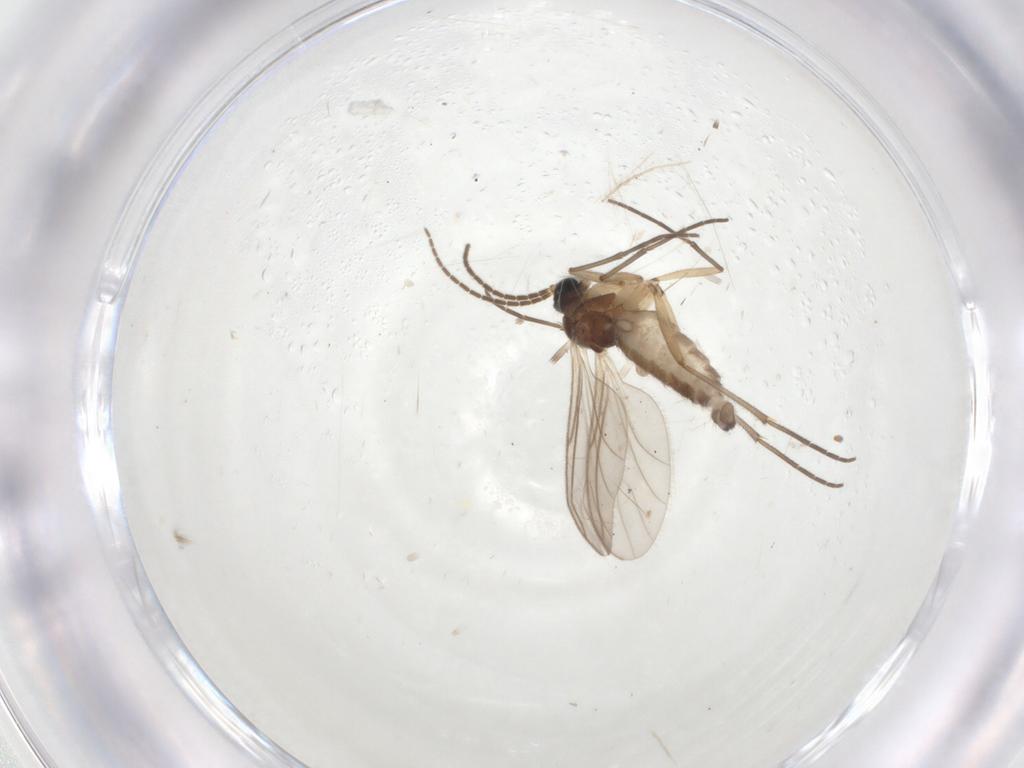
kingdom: Animalia
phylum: Arthropoda
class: Insecta
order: Diptera
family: Sciaridae
